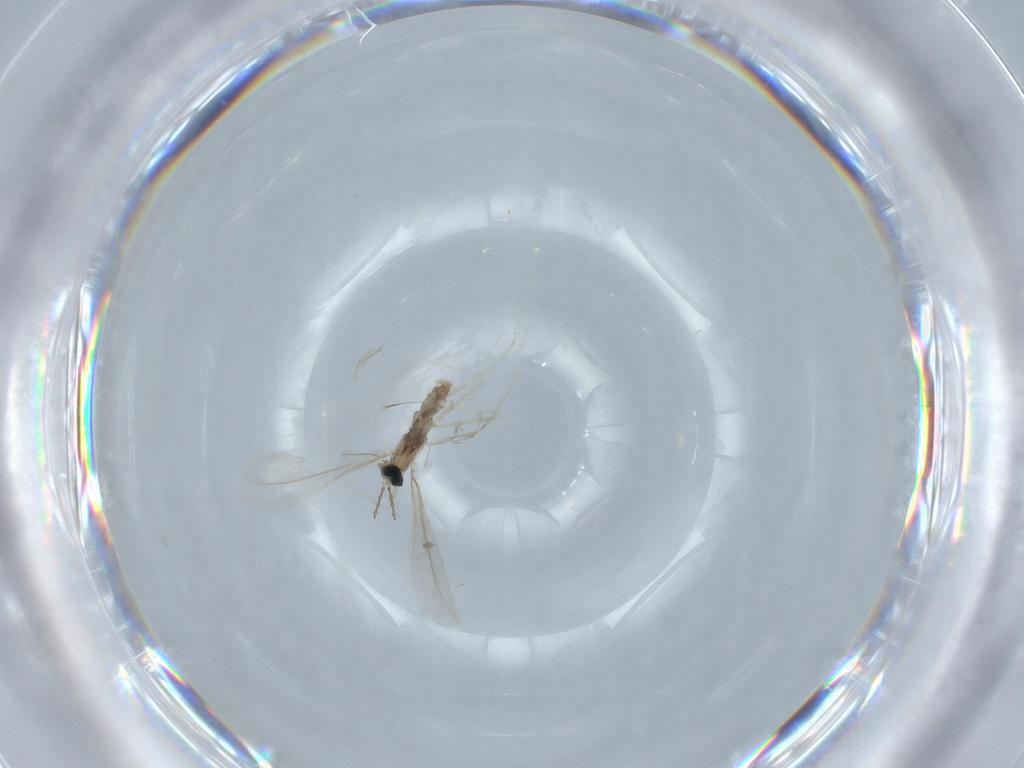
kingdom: Animalia
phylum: Arthropoda
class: Insecta
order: Diptera
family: Cecidomyiidae
